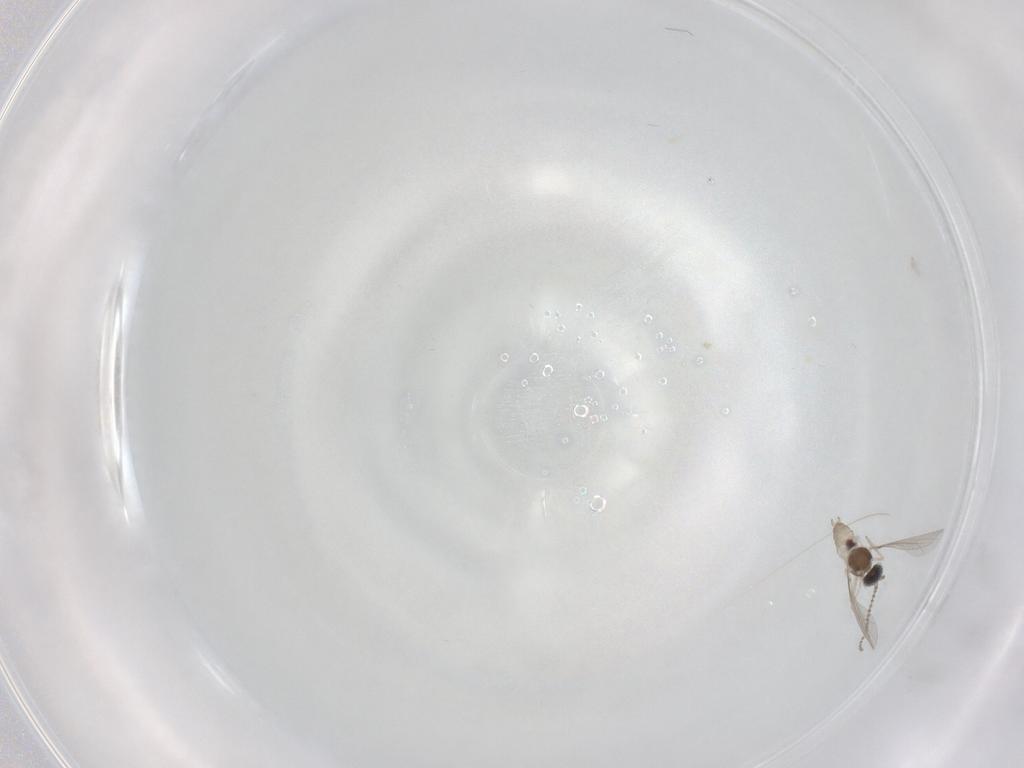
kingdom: Animalia
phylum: Arthropoda
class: Insecta
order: Diptera
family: Cecidomyiidae
